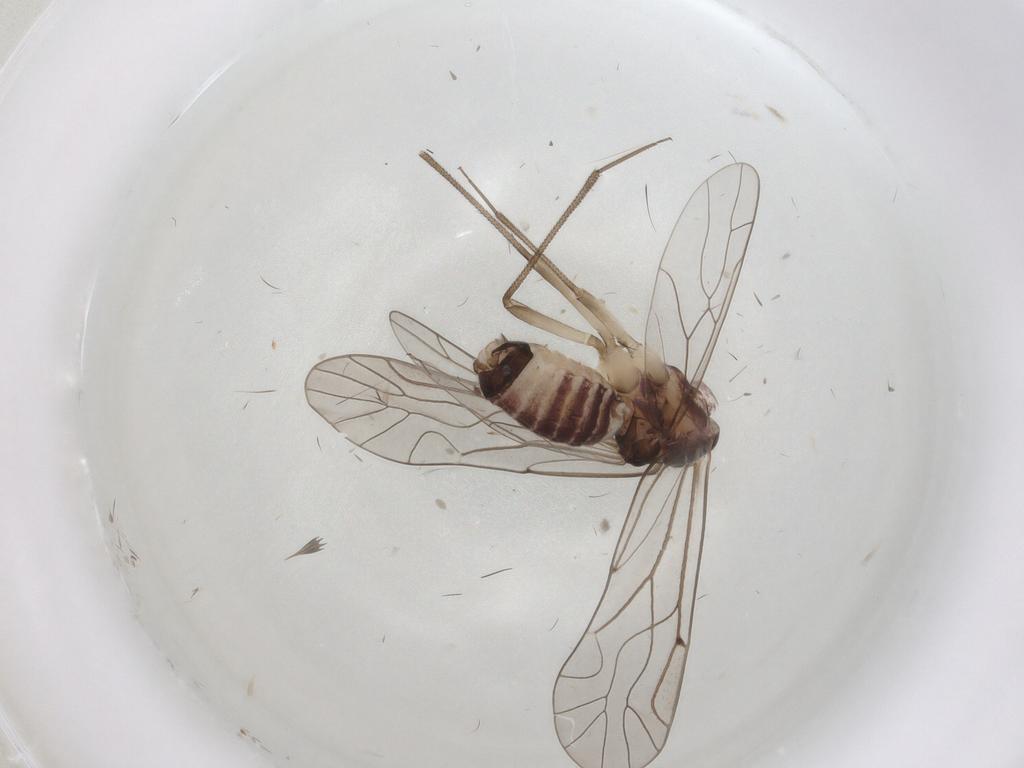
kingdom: Animalia
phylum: Arthropoda
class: Insecta
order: Psocodea
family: Lachesillidae
